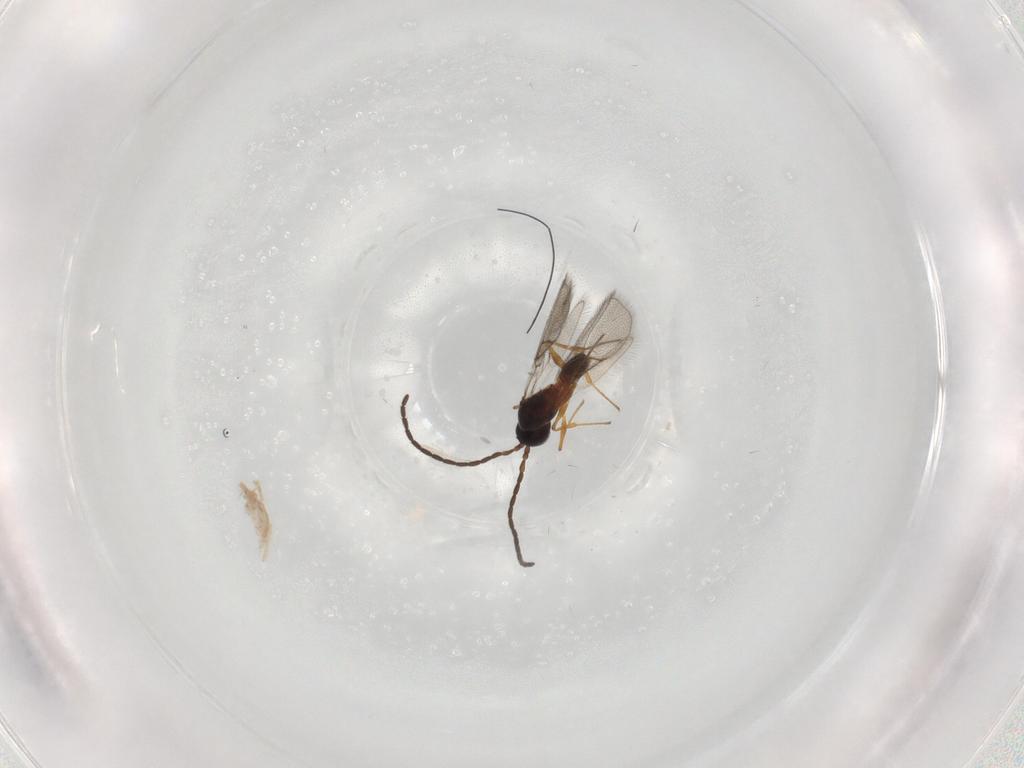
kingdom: Animalia
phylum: Arthropoda
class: Insecta
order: Hymenoptera
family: Figitidae
